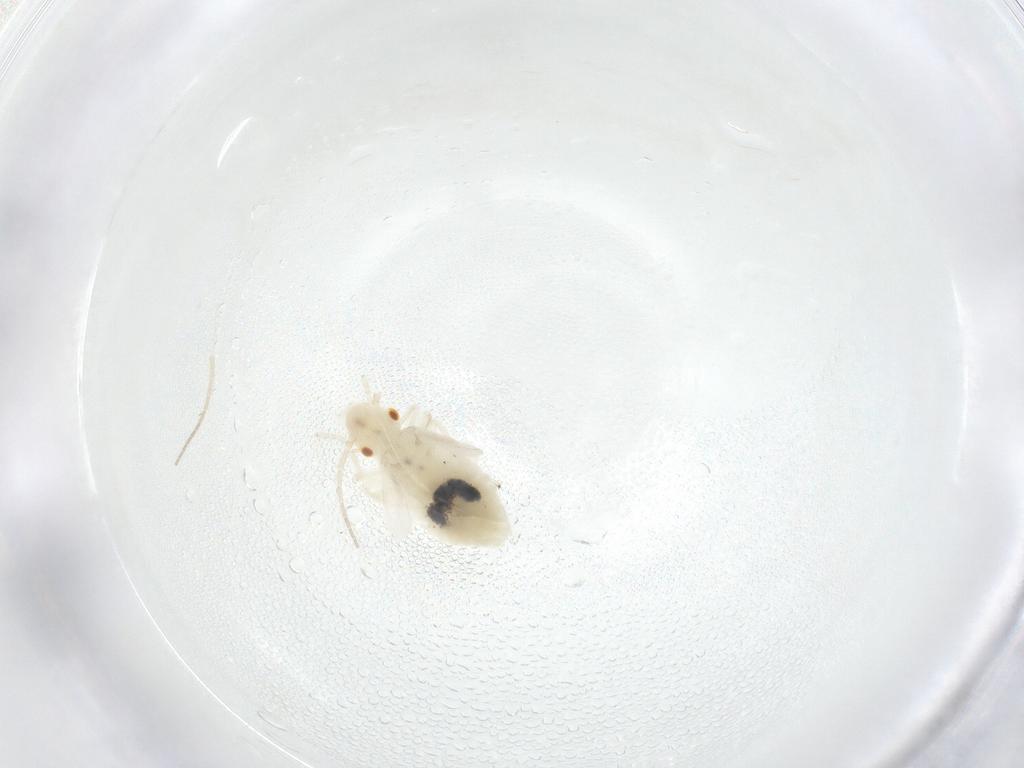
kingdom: Animalia
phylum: Arthropoda
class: Insecta
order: Psocodea
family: Caeciliusidae
